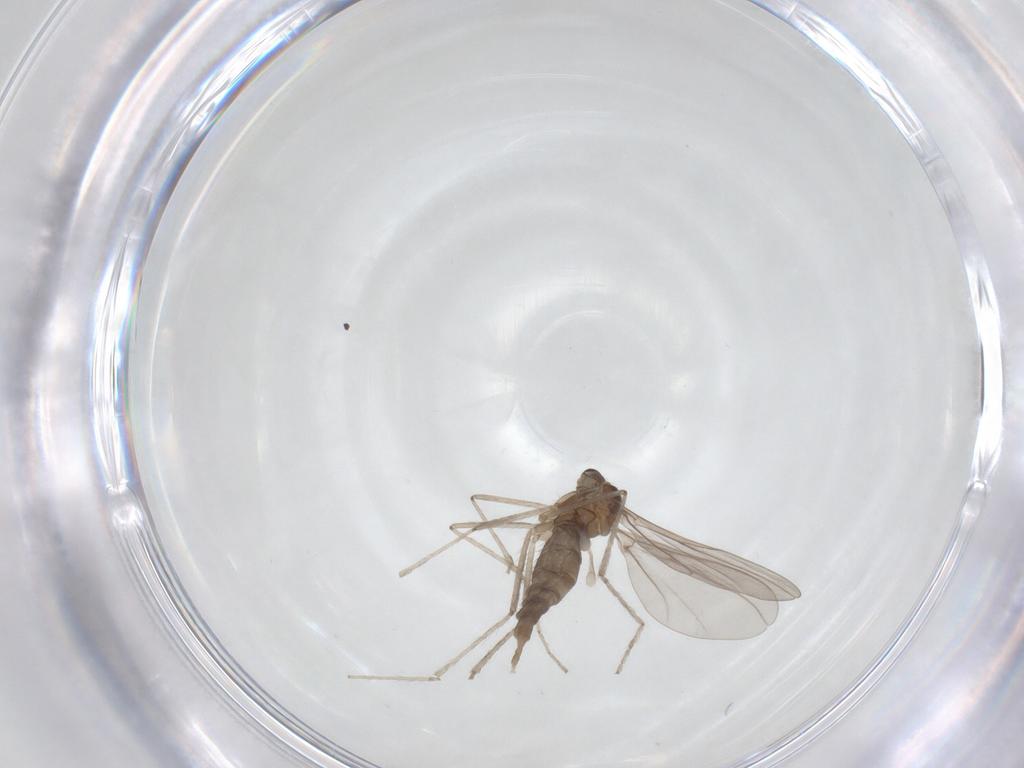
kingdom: Animalia
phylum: Arthropoda
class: Insecta
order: Diptera
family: Cecidomyiidae
